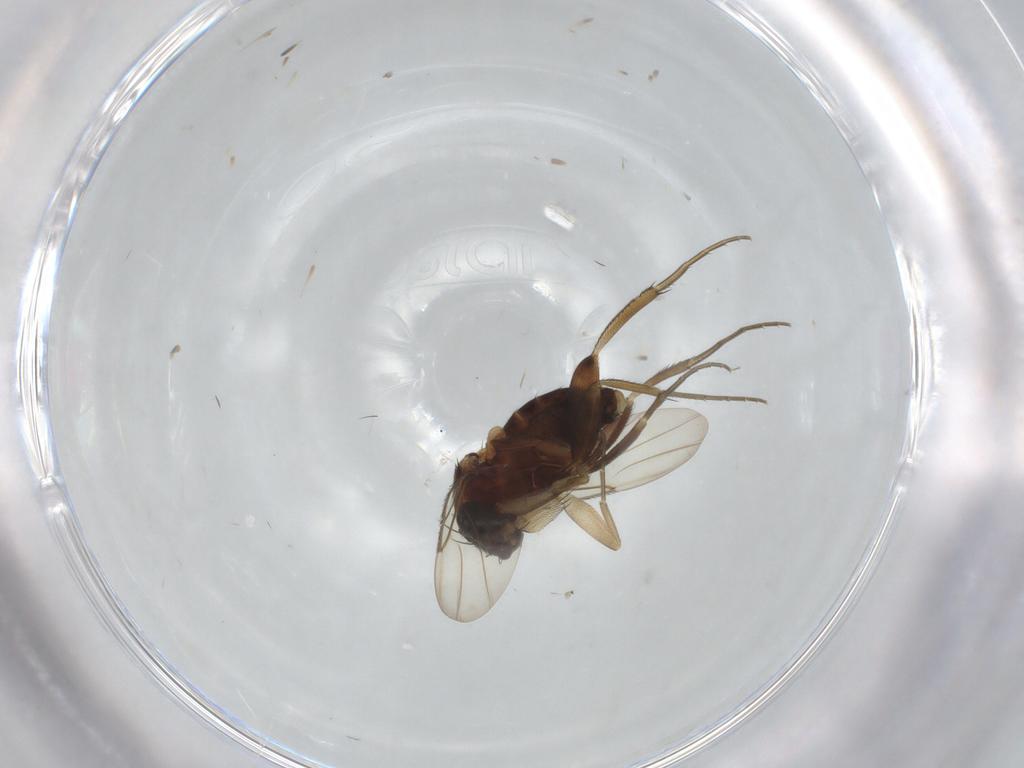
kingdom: Animalia
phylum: Arthropoda
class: Insecta
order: Diptera
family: Phoridae
